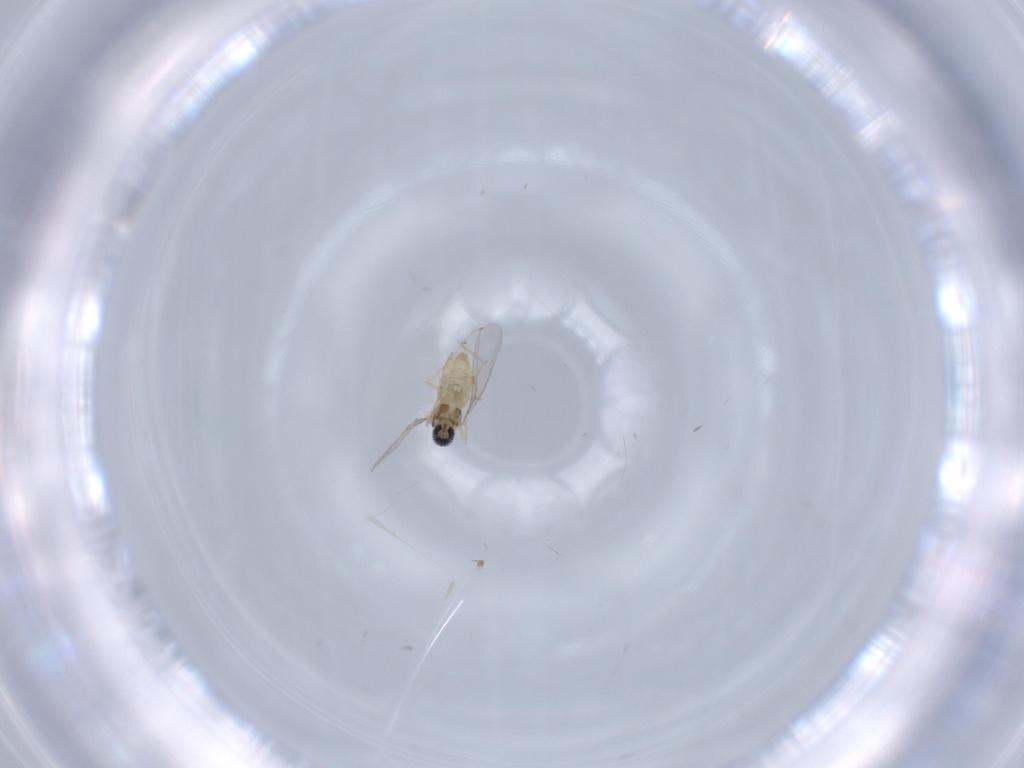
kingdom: Animalia
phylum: Arthropoda
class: Insecta
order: Diptera
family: Cecidomyiidae
